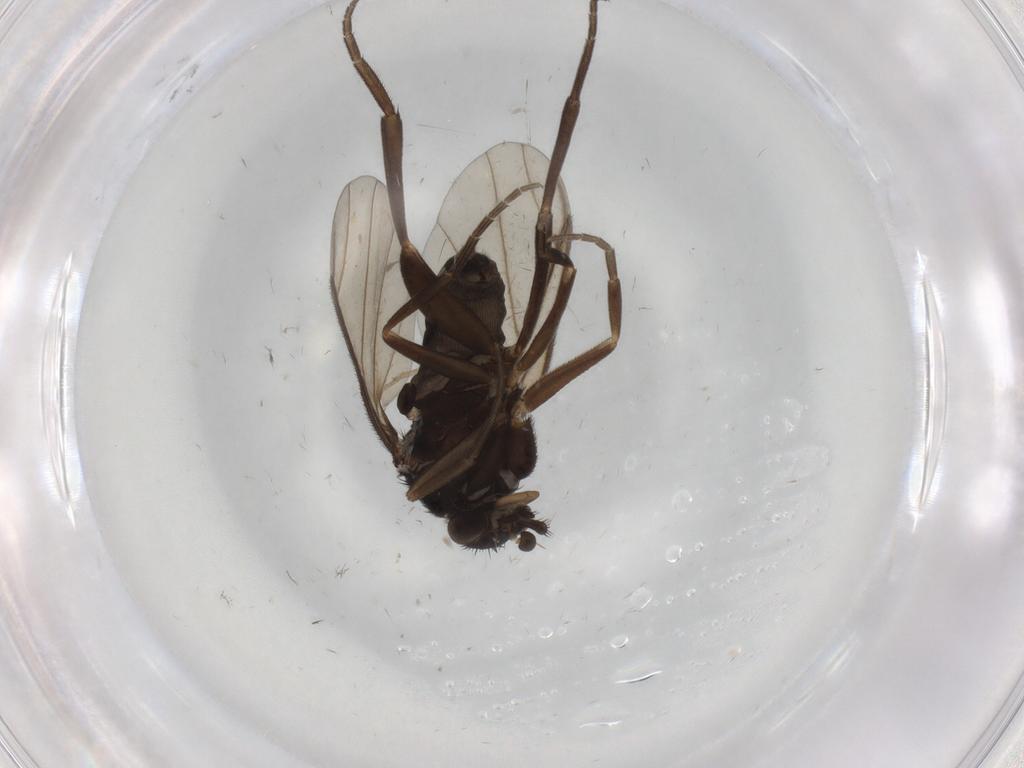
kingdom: Animalia
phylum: Arthropoda
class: Insecta
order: Diptera
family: Phoridae
